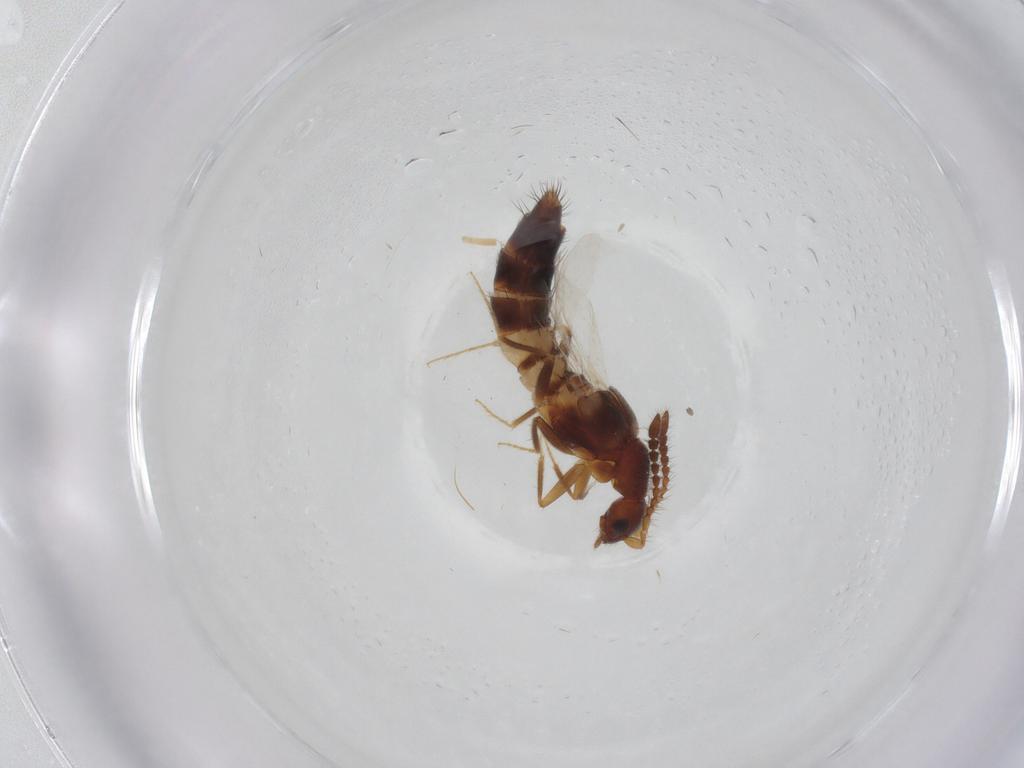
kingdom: Animalia
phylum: Arthropoda
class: Insecta
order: Coleoptera
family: Staphylinidae
